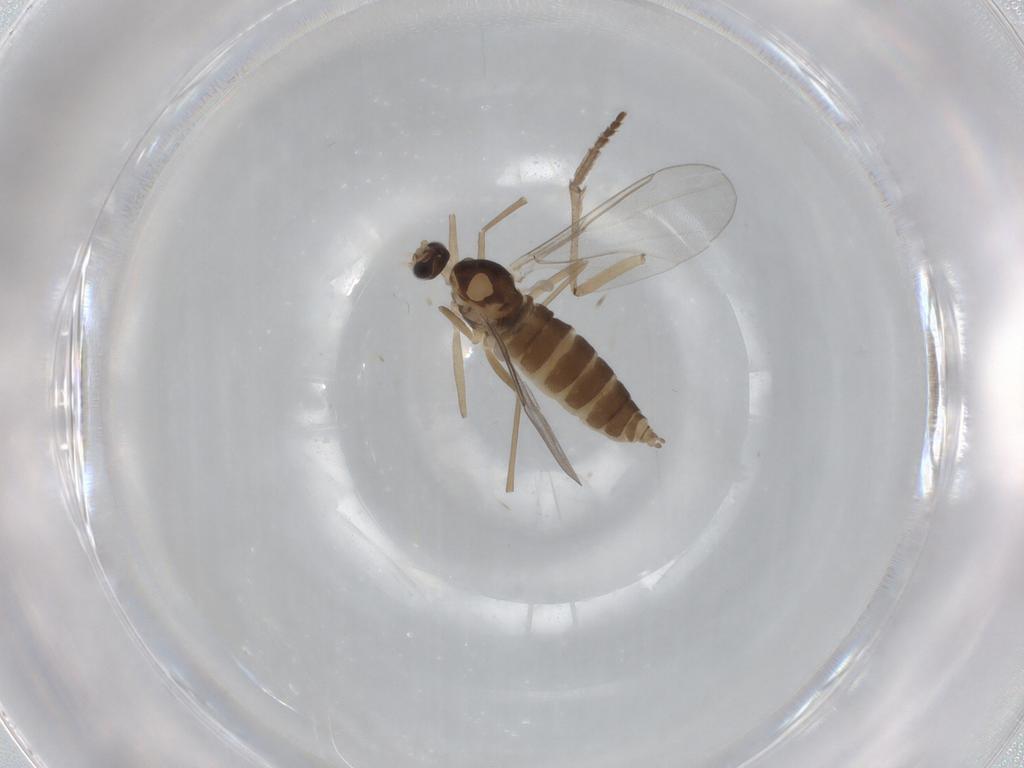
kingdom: Animalia
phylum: Arthropoda
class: Insecta
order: Diptera
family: Cecidomyiidae
